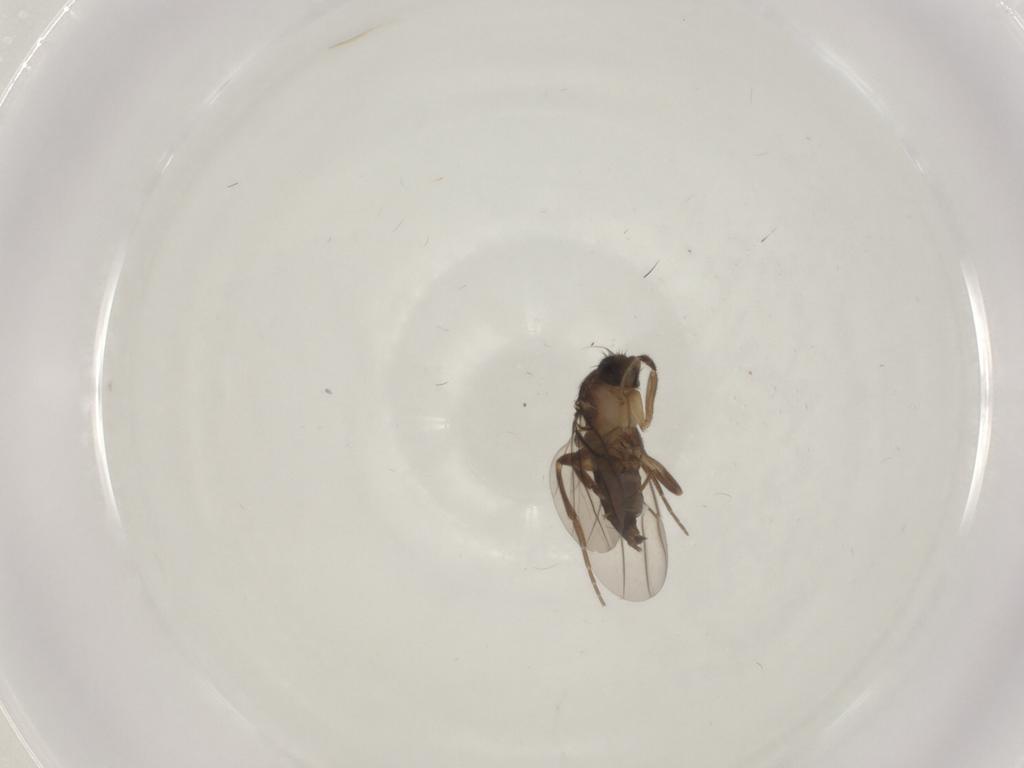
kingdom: Animalia
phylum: Arthropoda
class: Insecta
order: Diptera
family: Phoridae
